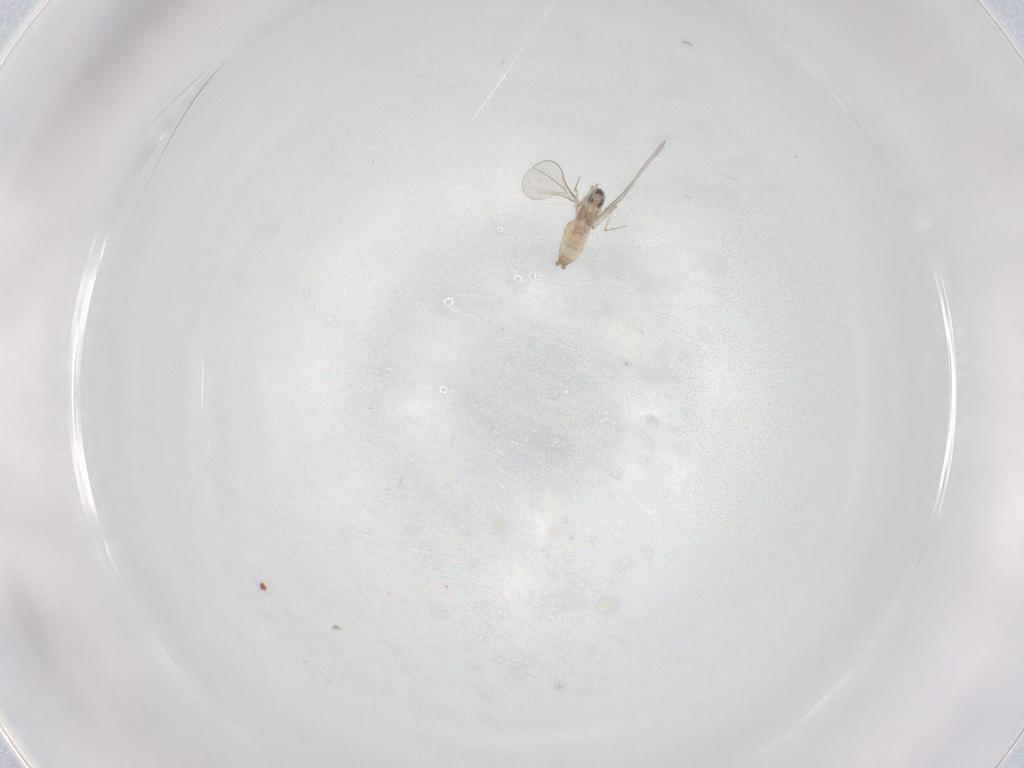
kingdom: Animalia
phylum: Arthropoda
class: Insecta
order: Diptera
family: Cecidomyiidae
